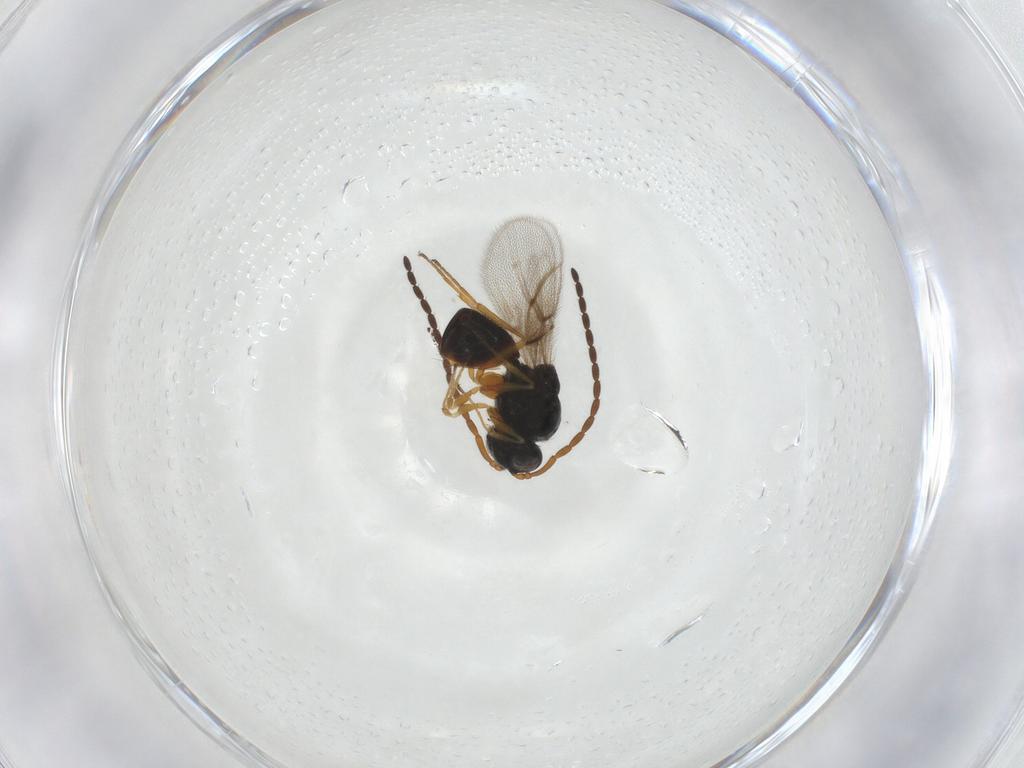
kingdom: Animalia
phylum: Arthropoda
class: Insecta
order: Hymenoptera
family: Figitidae
